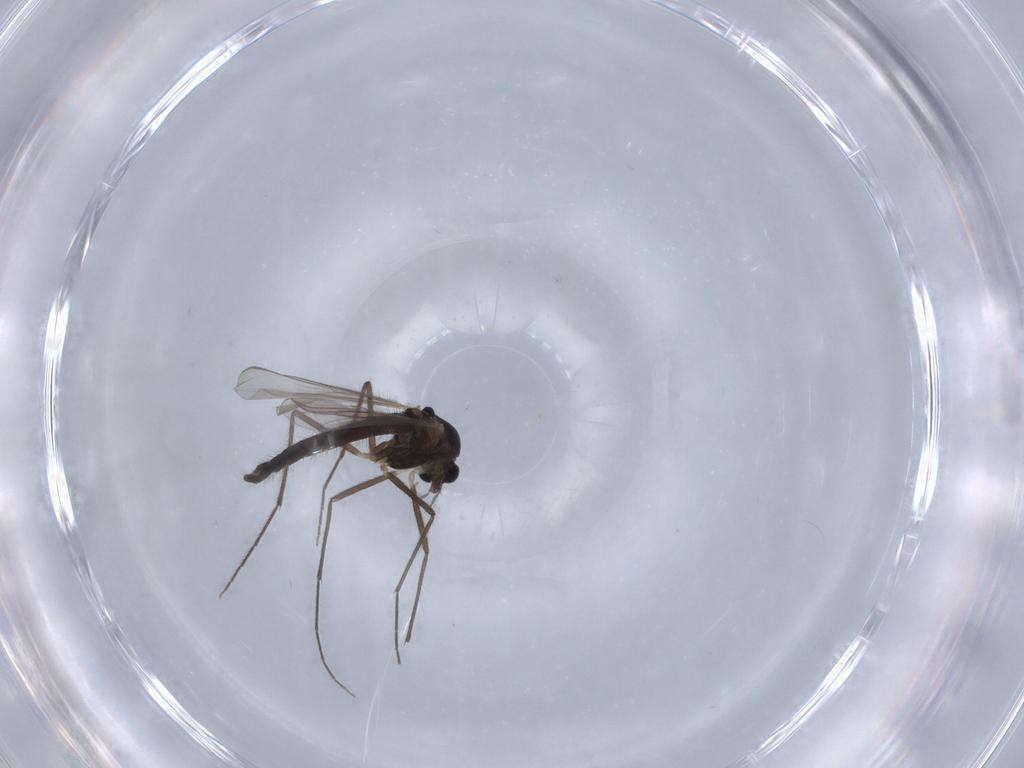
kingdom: Animalia
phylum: Arthropoda
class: Insecta
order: Diptera
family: Chironomidae
